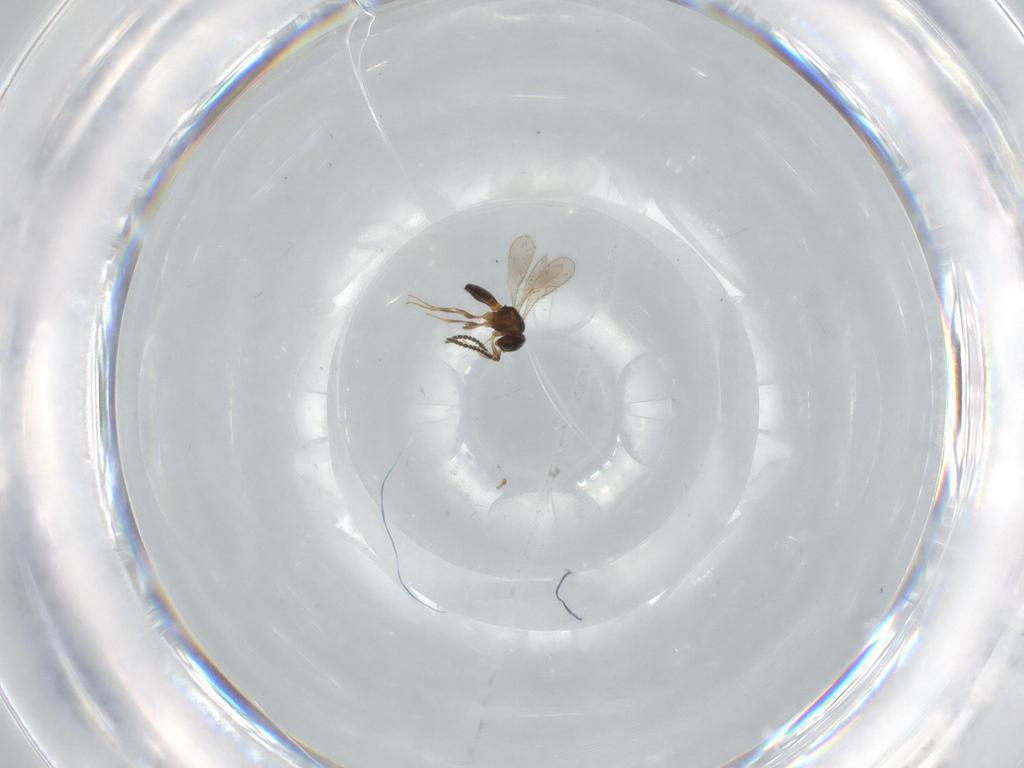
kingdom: Animalia
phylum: Arthropoda
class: Insecta
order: Hymenoptera
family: Scelionidae
